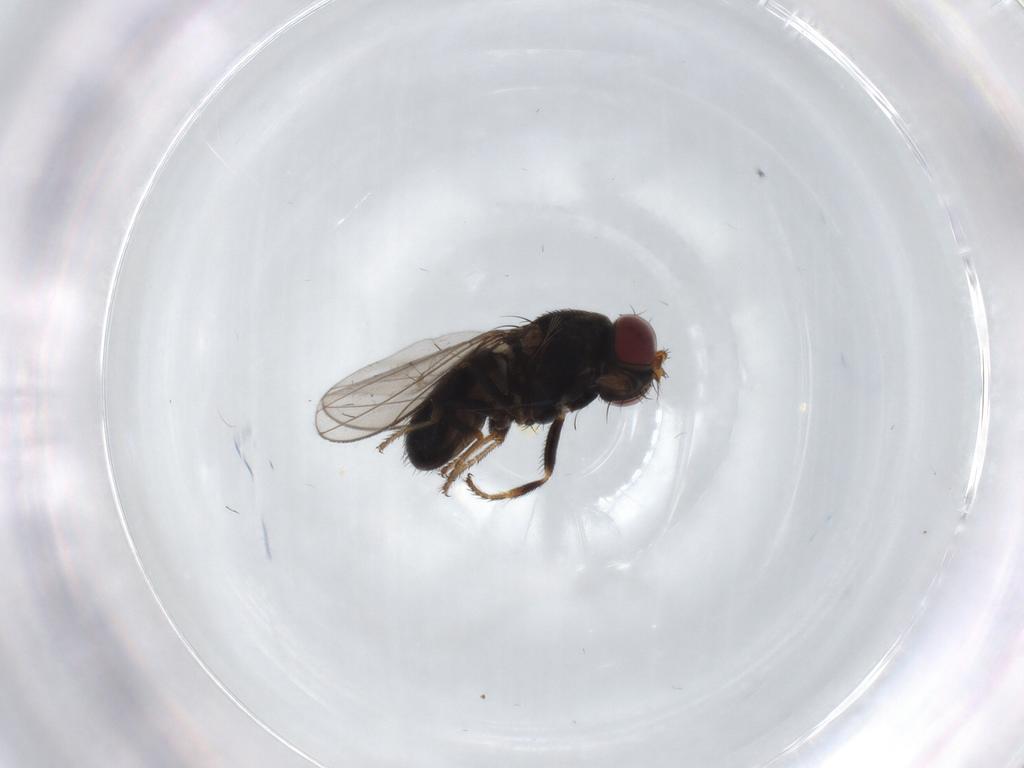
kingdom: Animalia
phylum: Arthropoda
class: Insecta
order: Diptera
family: Ephydridae
